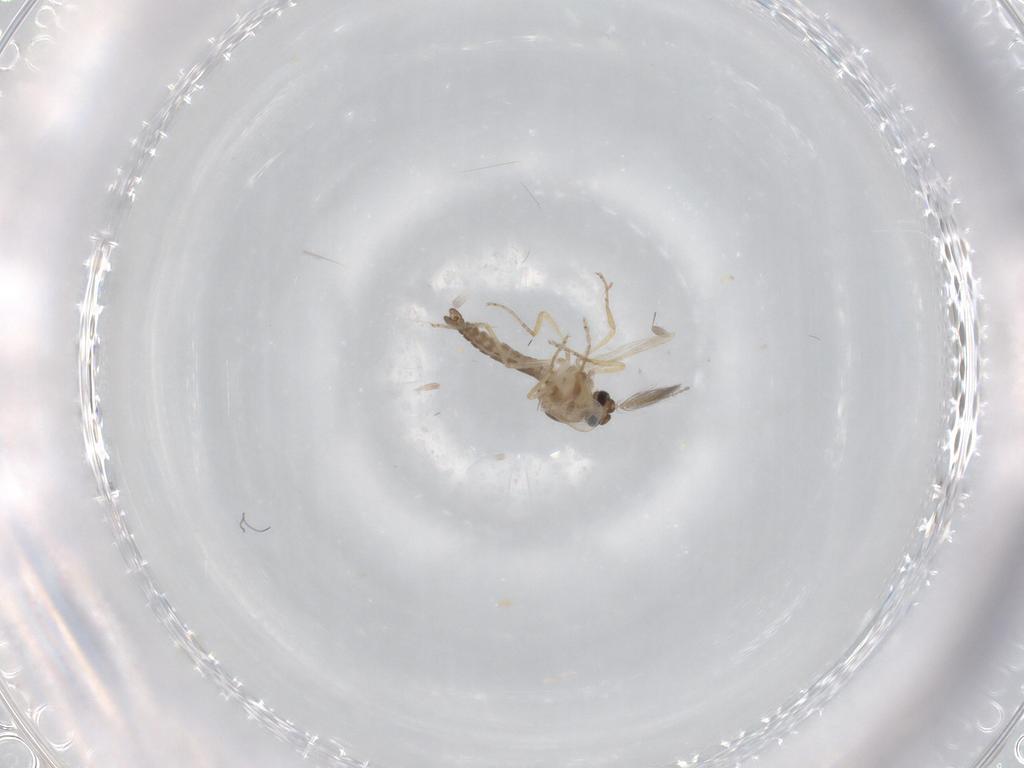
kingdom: Animalia
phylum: Arthropoda
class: Insecta
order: Diptera
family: Ceratopogonidae
